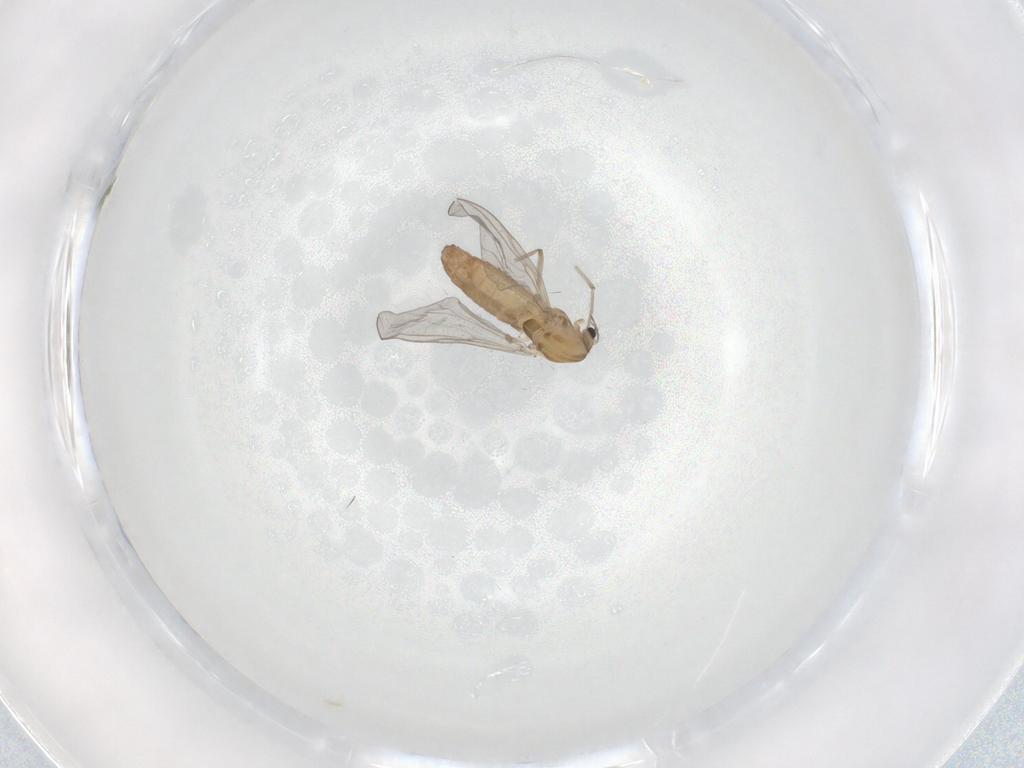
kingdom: Animalia
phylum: Arthropoda
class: Insecta
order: Diptera
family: Chironomidae
